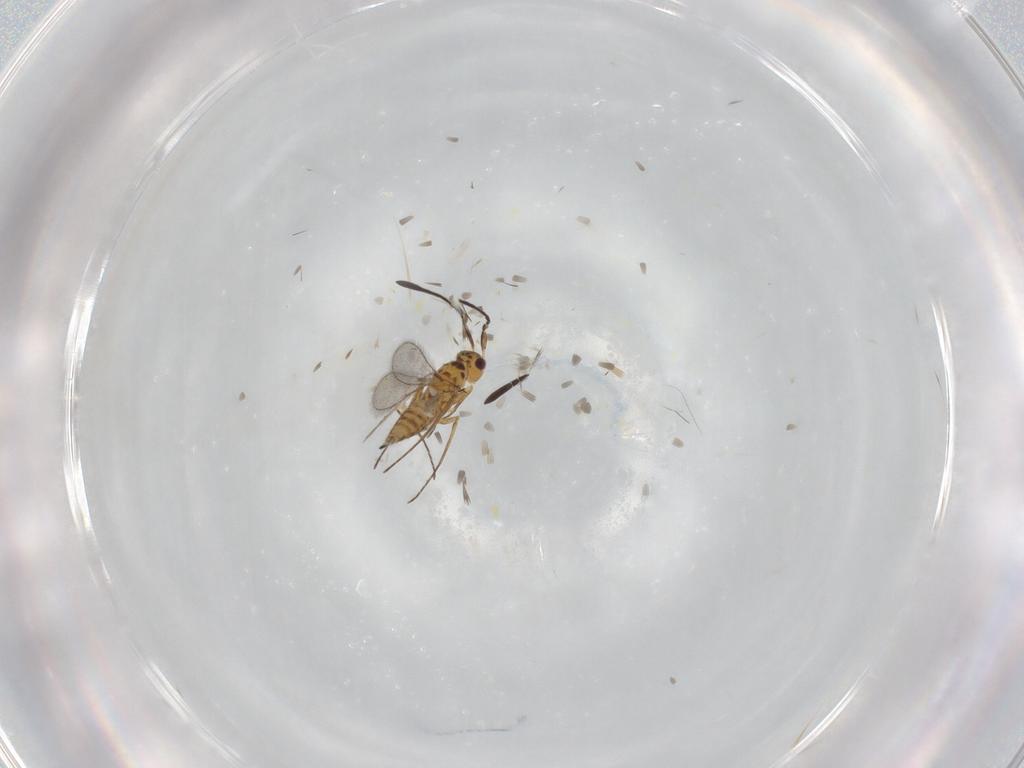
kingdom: Animalia
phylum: Arthropoda
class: Insecta
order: Hymenoptera
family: Mymaridae
